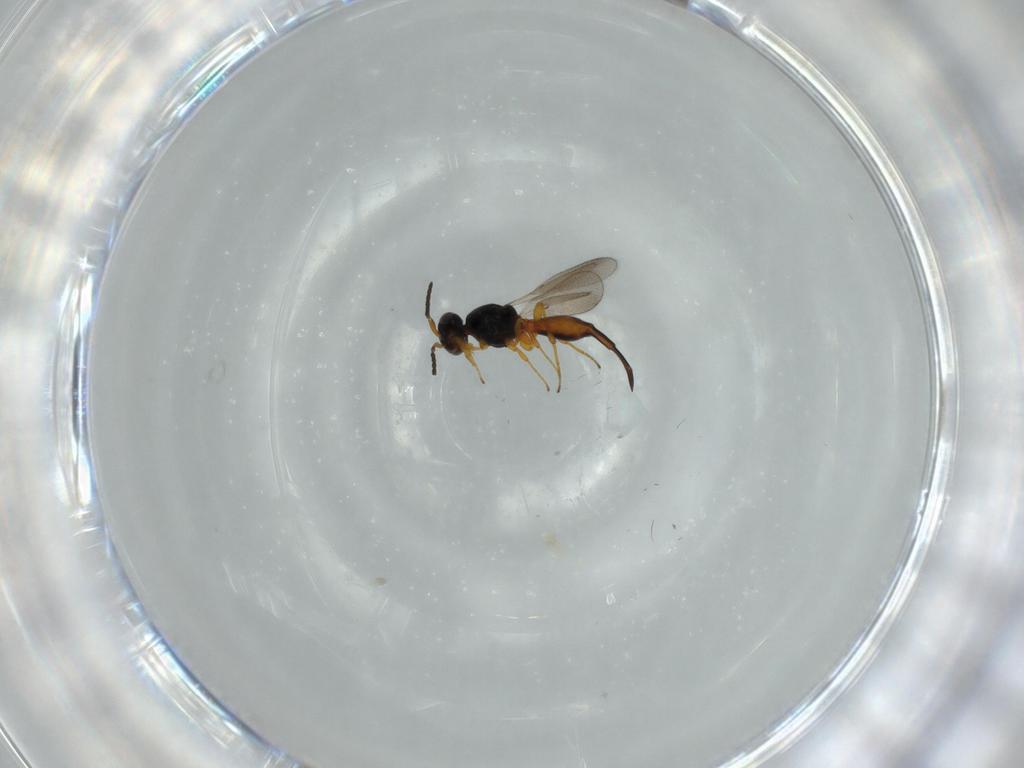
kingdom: Animalia
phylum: Arthropoda
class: Insecta
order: Hymenoptera
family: Platygastridae
